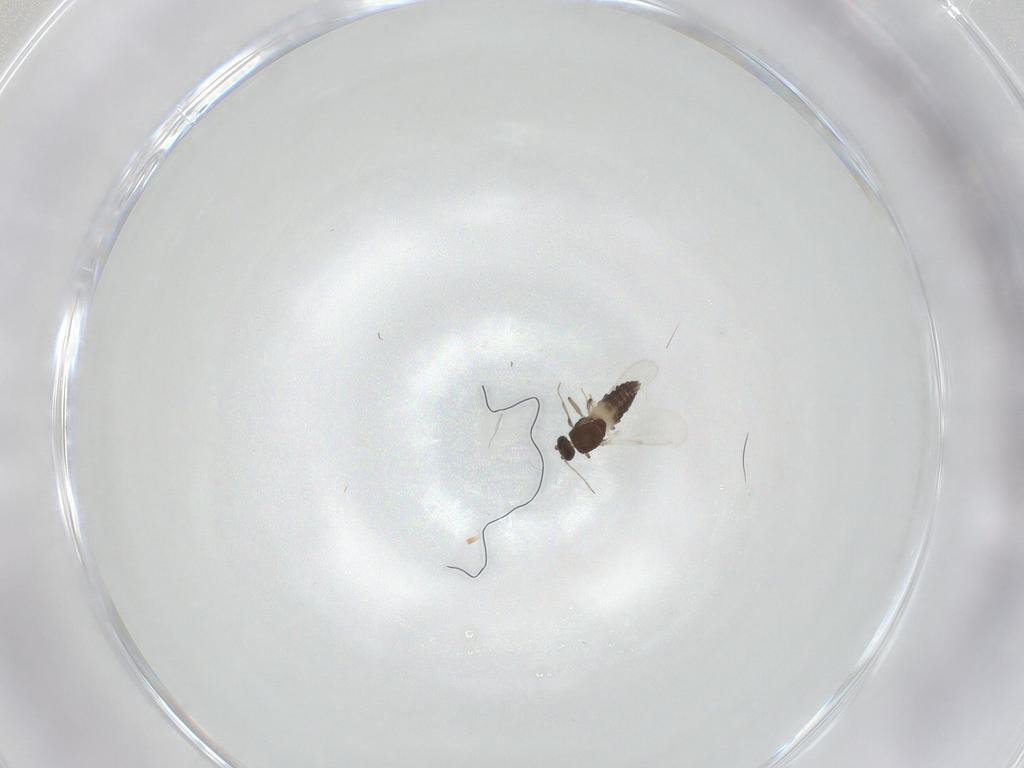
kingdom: Animalia
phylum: Arthropoda
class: Insecta
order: Diptera
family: Ceratopogonidae
